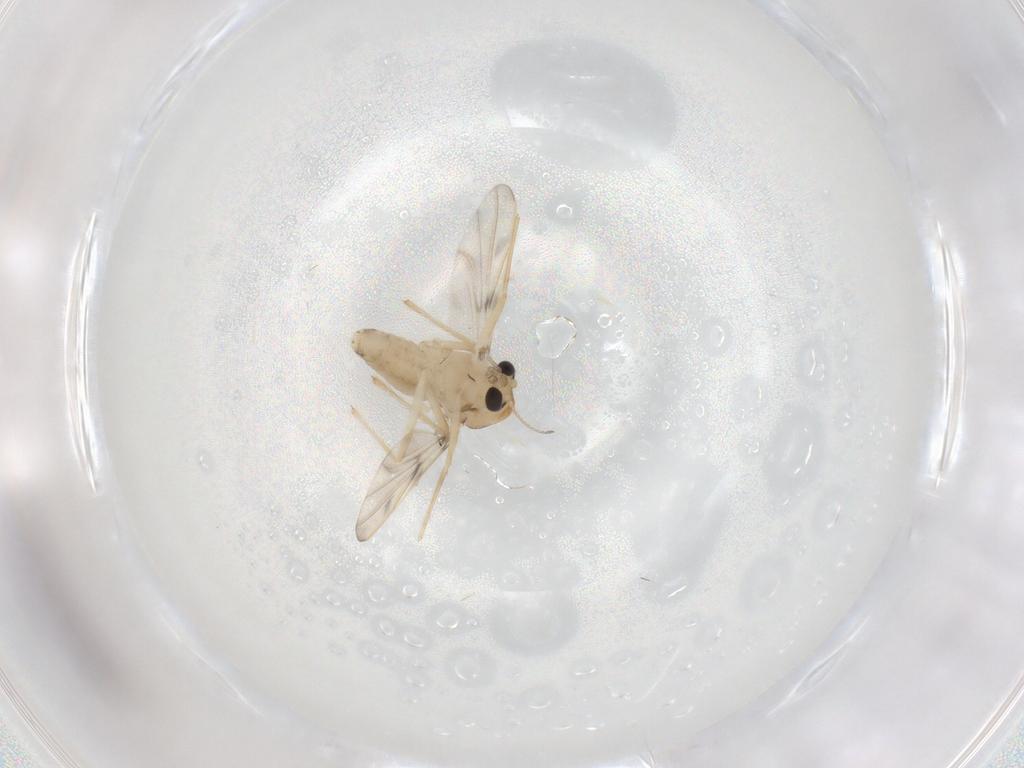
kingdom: Animalia
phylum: Arthropoda
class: Insecta
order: Diptera
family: Chironomidae
